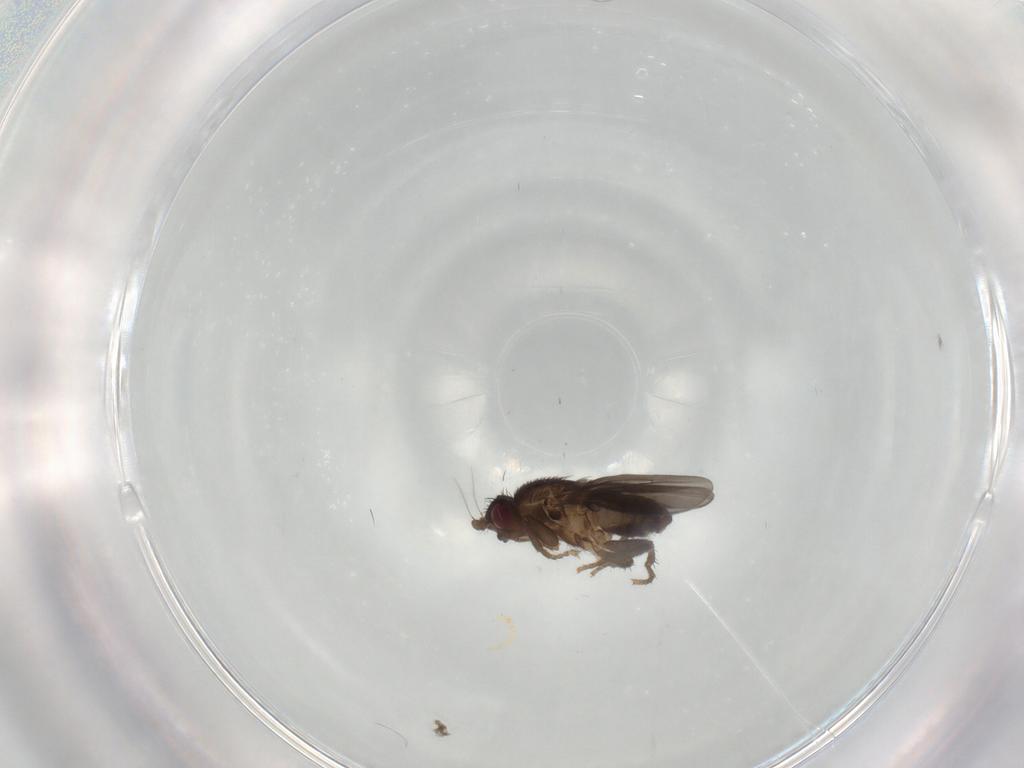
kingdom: Animalia
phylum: Arthropoda
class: Insecta
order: Diptera
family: Sphaeroceridae
